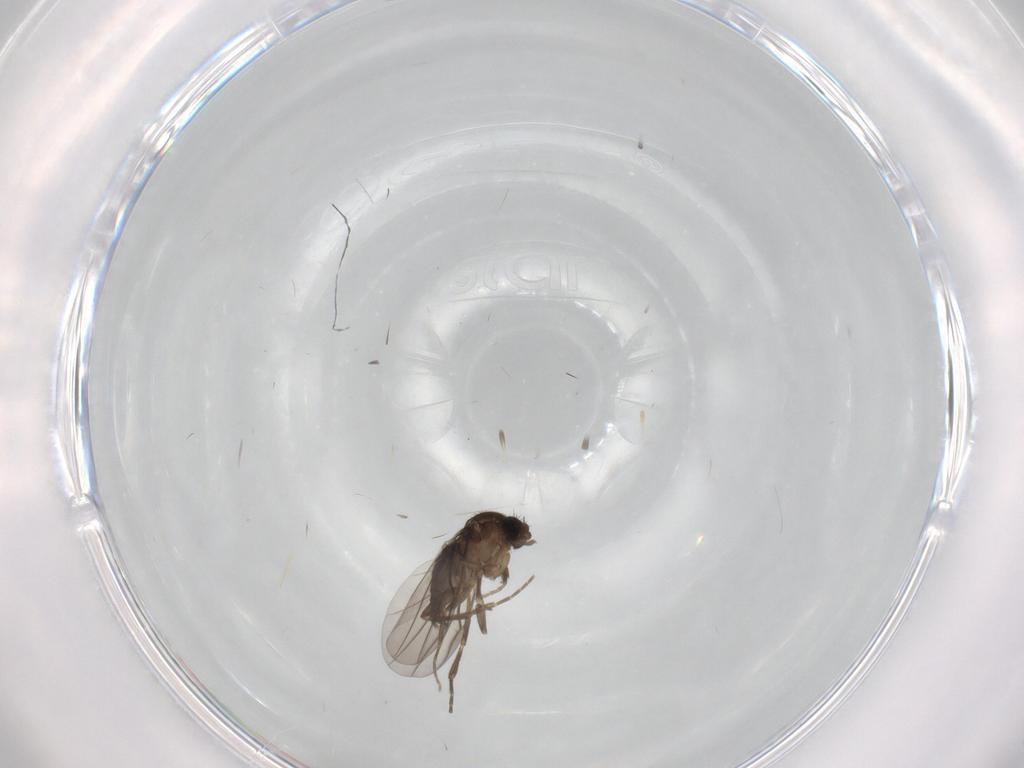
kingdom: Animalia
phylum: Arthropoda
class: Insecta
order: Diptera
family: Phoridae
